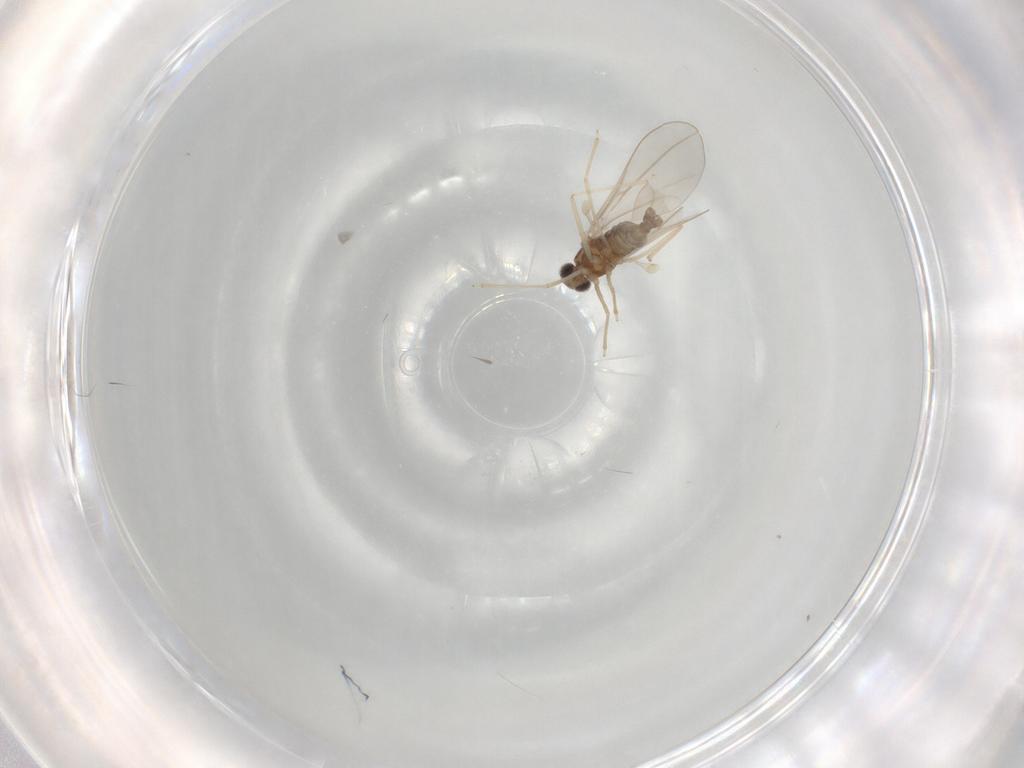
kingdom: Animalia
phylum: Arthropoda
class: Insecta
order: Diptera
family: Cecidomyiidae
